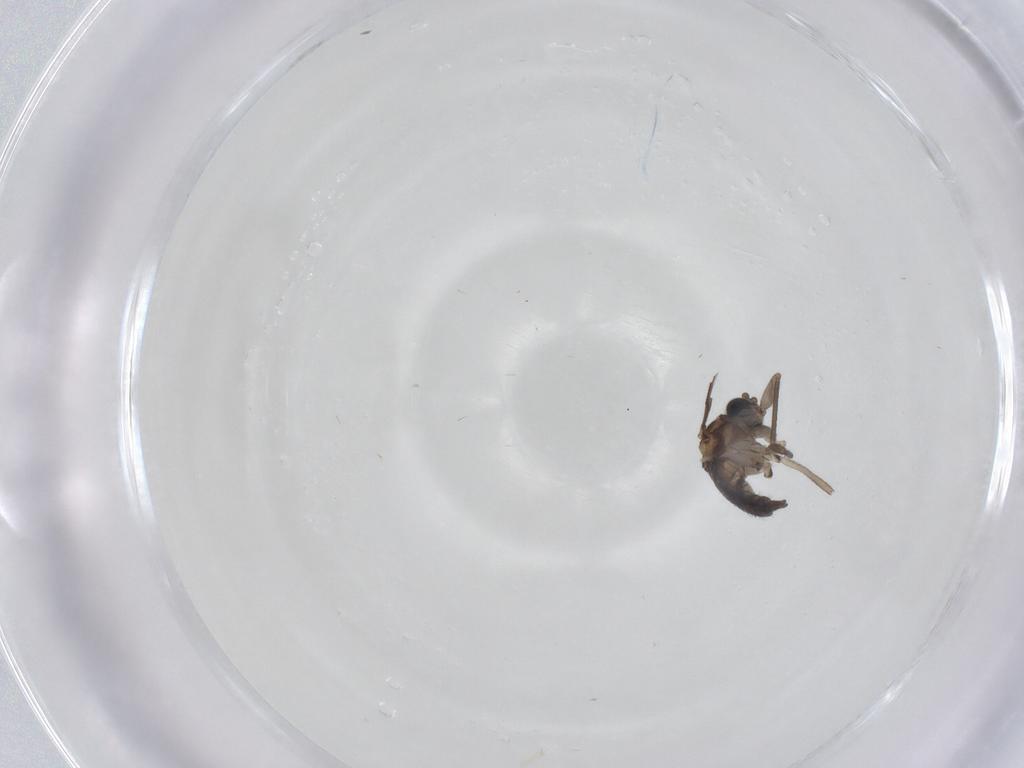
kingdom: Animalia
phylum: Arthropoda
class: Insecta
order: Diptera
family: Sciaridae
